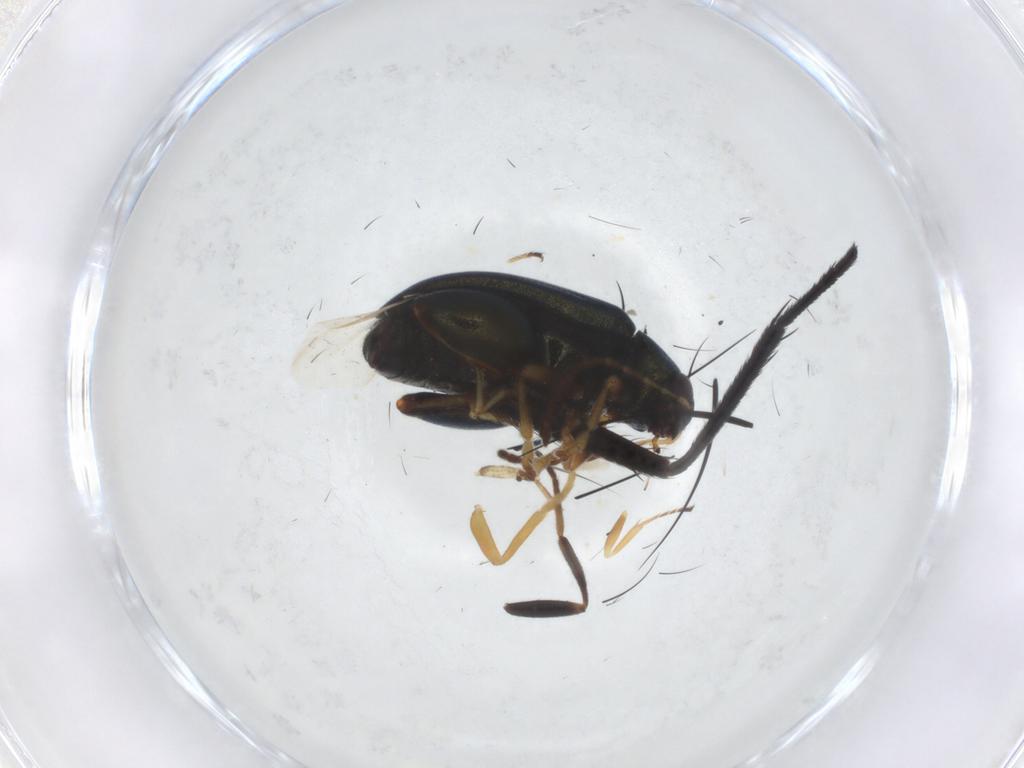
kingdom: Animalia
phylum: Arthropoda
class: Insecta
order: Coleoptera
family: Chrysomelidae
